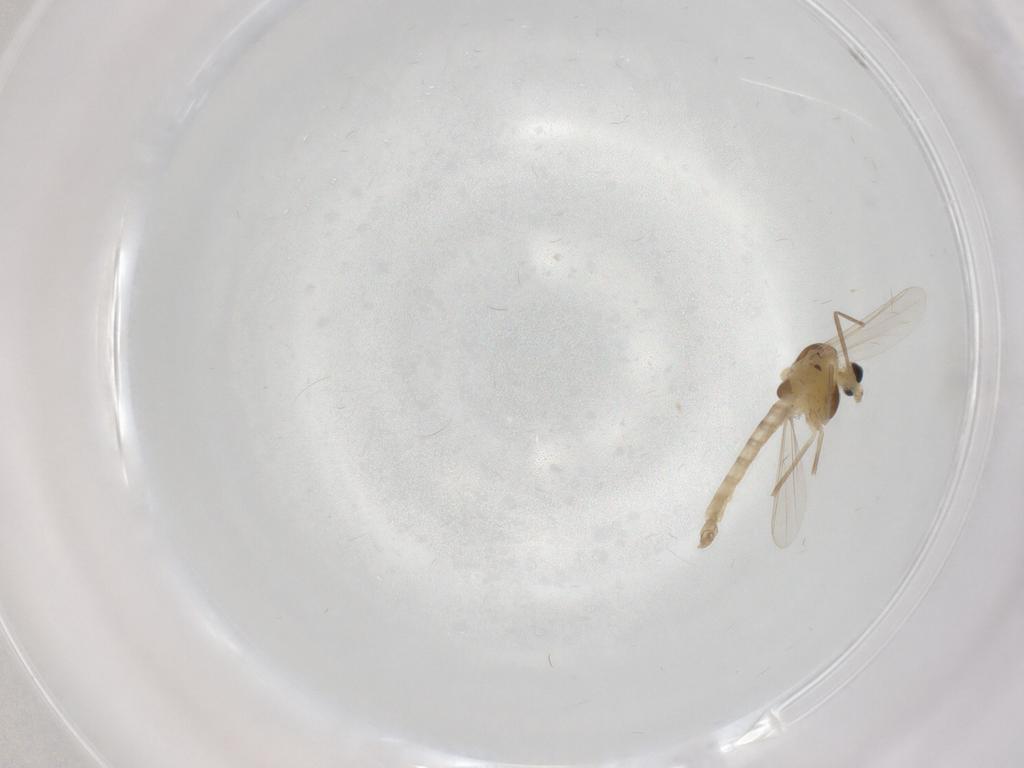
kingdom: Animalia
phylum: Arthropoda
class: Insecta
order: Diptera
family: Chironomidae
